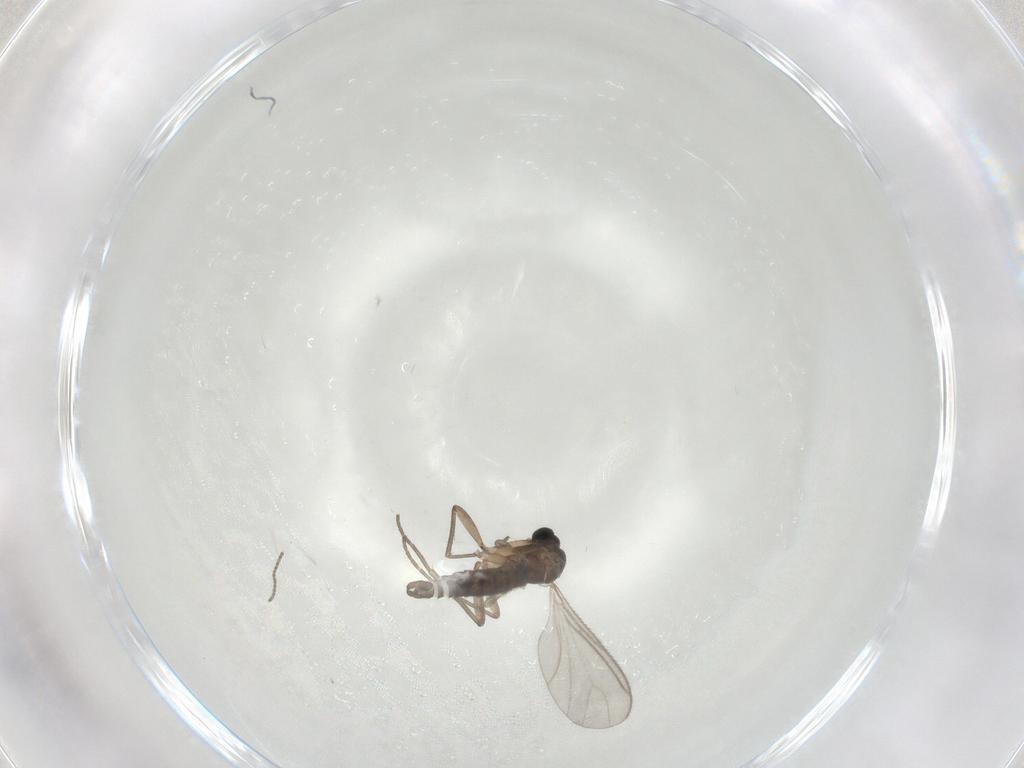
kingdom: Animalia
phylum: Arthropoda
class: Insecta
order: Diptera
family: Sciaridae
